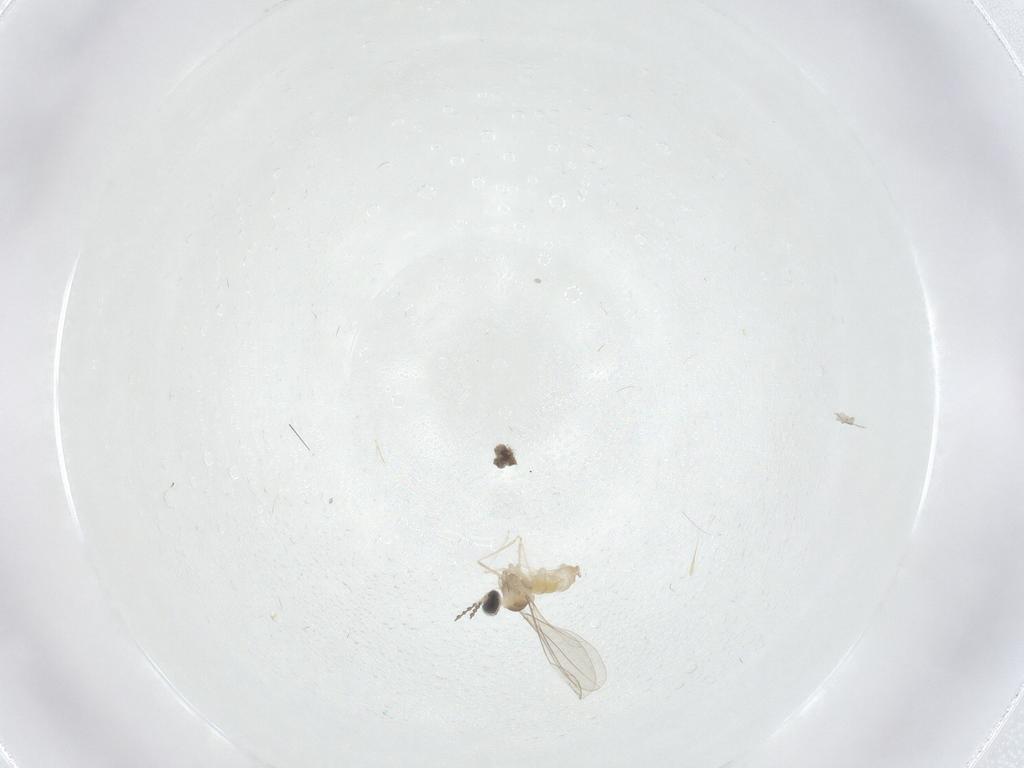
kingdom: Animalia
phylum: Arthropoda
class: Insecta
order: Diptera
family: Cecidomyiidae
